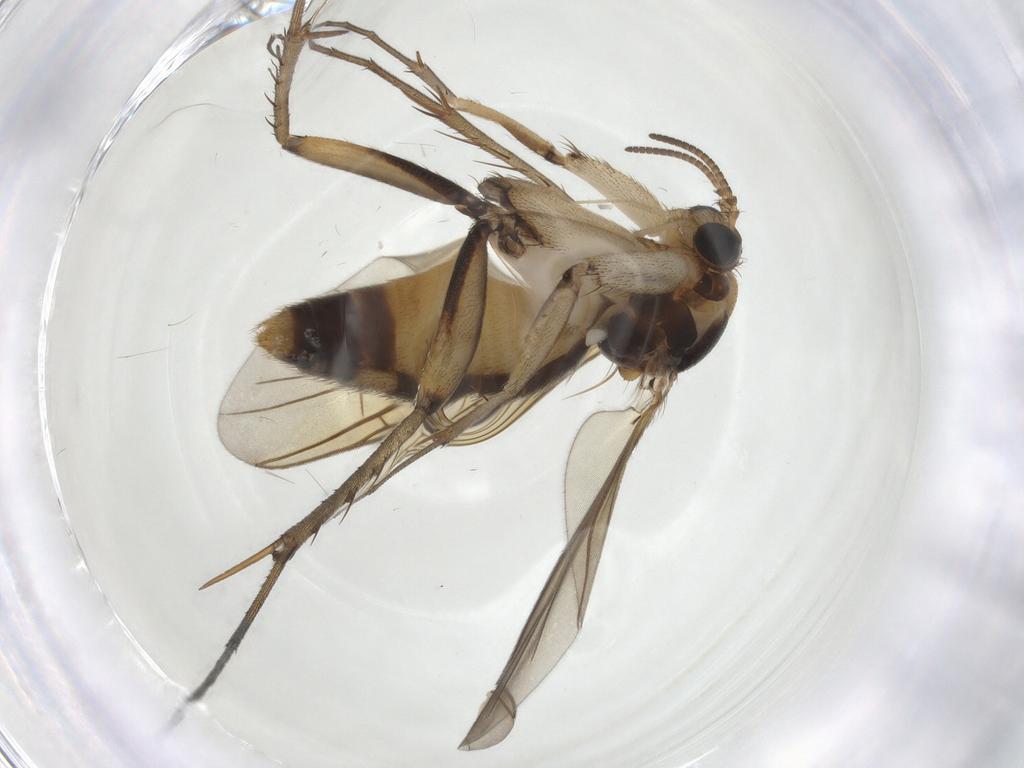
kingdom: Animalia
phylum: Arthropoda
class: Insecta
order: Diptera
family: Mycetophilidae
